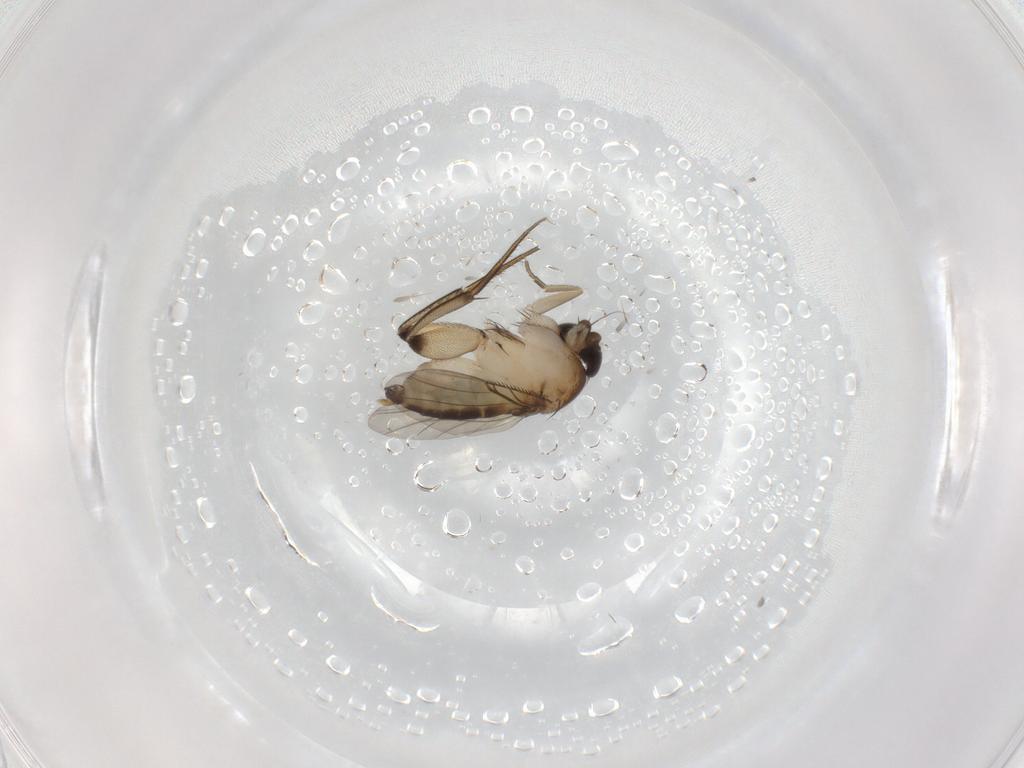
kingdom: Animalia
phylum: Arthropoda
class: Insecta
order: Diptera
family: Phoridae
